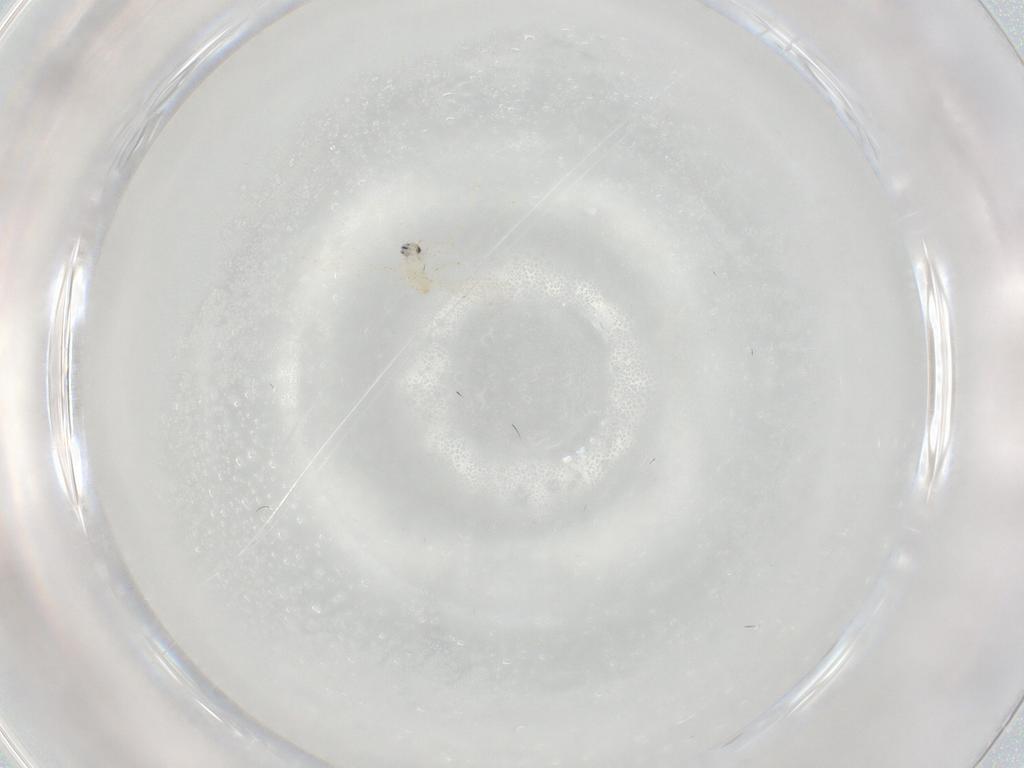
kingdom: Animalia
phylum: Arthropoda
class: Insecta
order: Diptera
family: Cecidomyiidae
